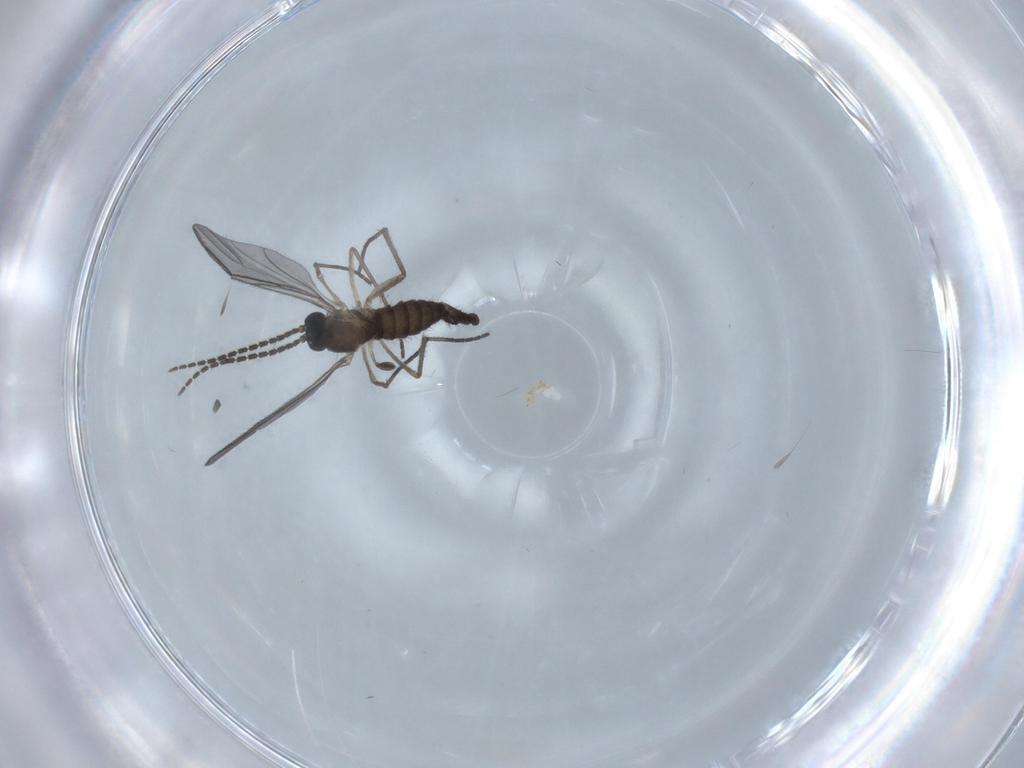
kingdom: Animalia
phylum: Arthropoda
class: Insecta
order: Diptera
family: Sciaridae
